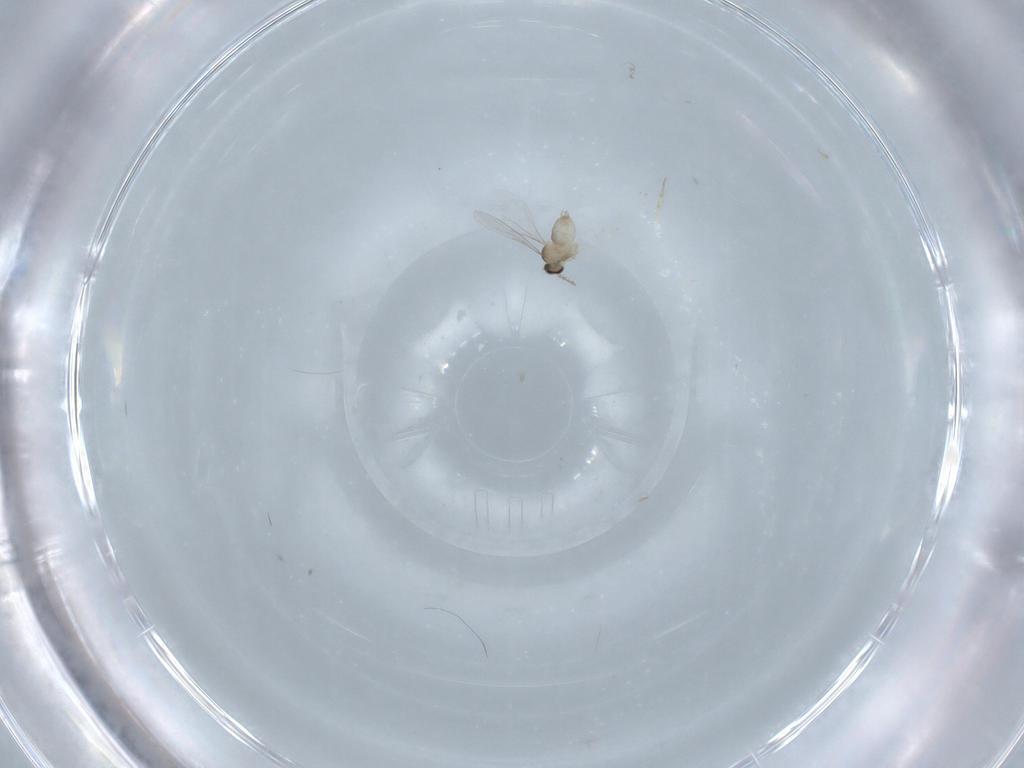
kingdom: Animalia
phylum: Arthropoda
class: Insecta
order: Diptera
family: Cecidomyiidae
